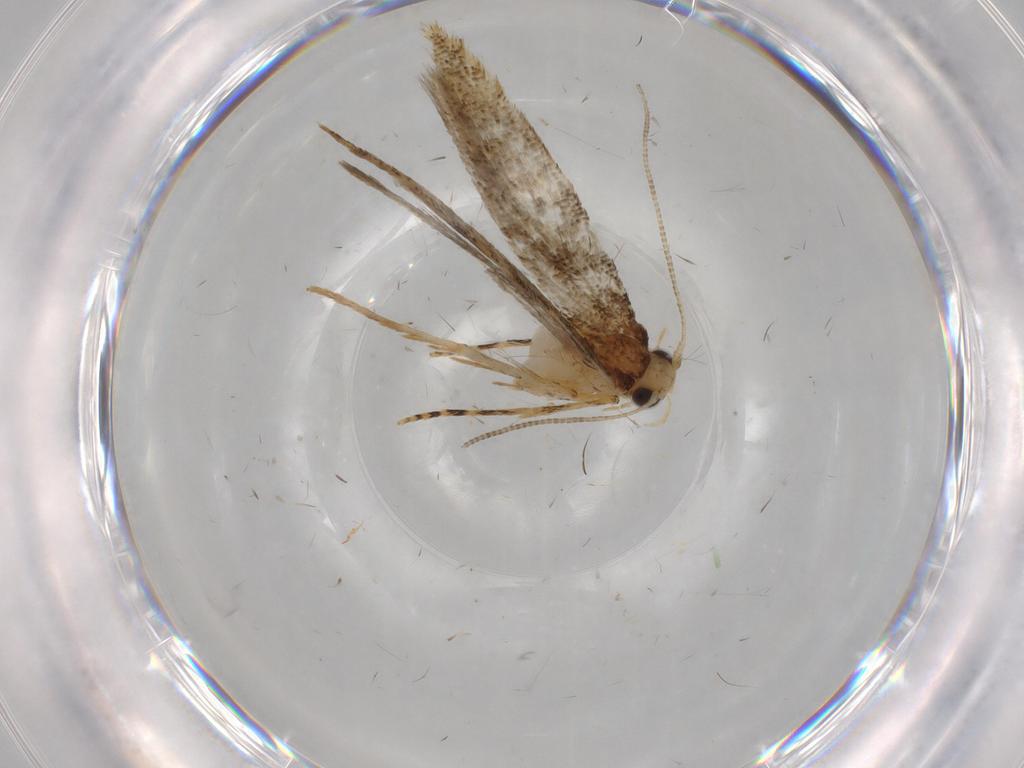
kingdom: Animalia
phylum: Arthropoda
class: Insecta
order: Lepidoptera
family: Tineidae
